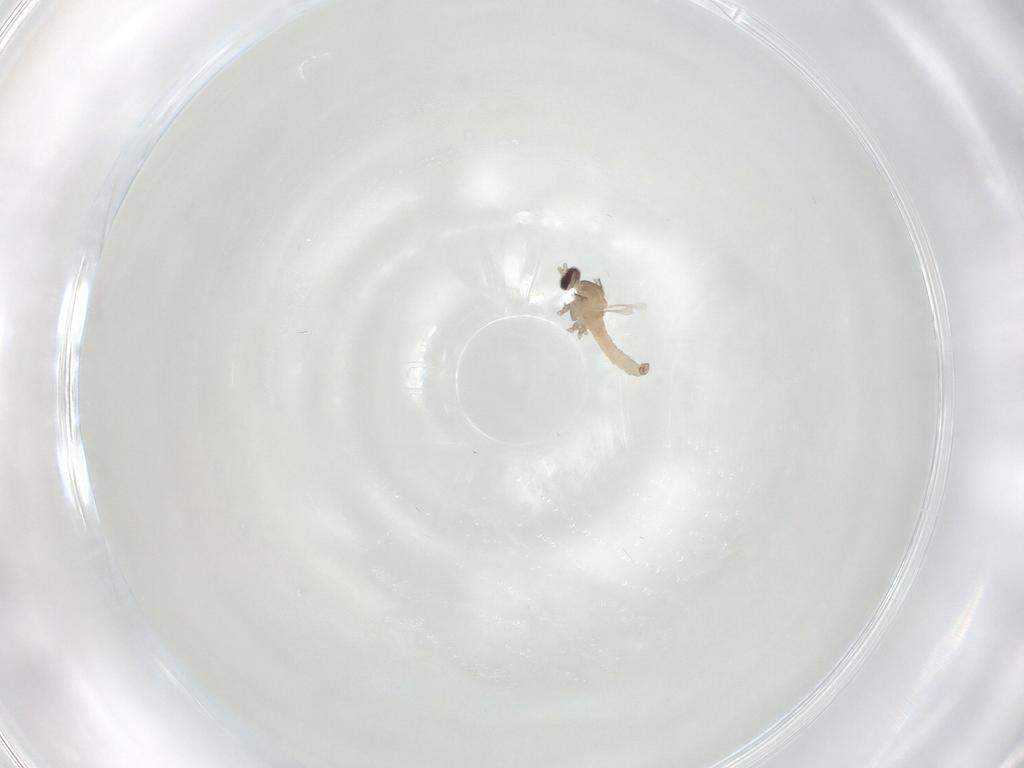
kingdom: Animalia
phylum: Arthropoda
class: Insecta
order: Diptera
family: Cecidomyiidae
